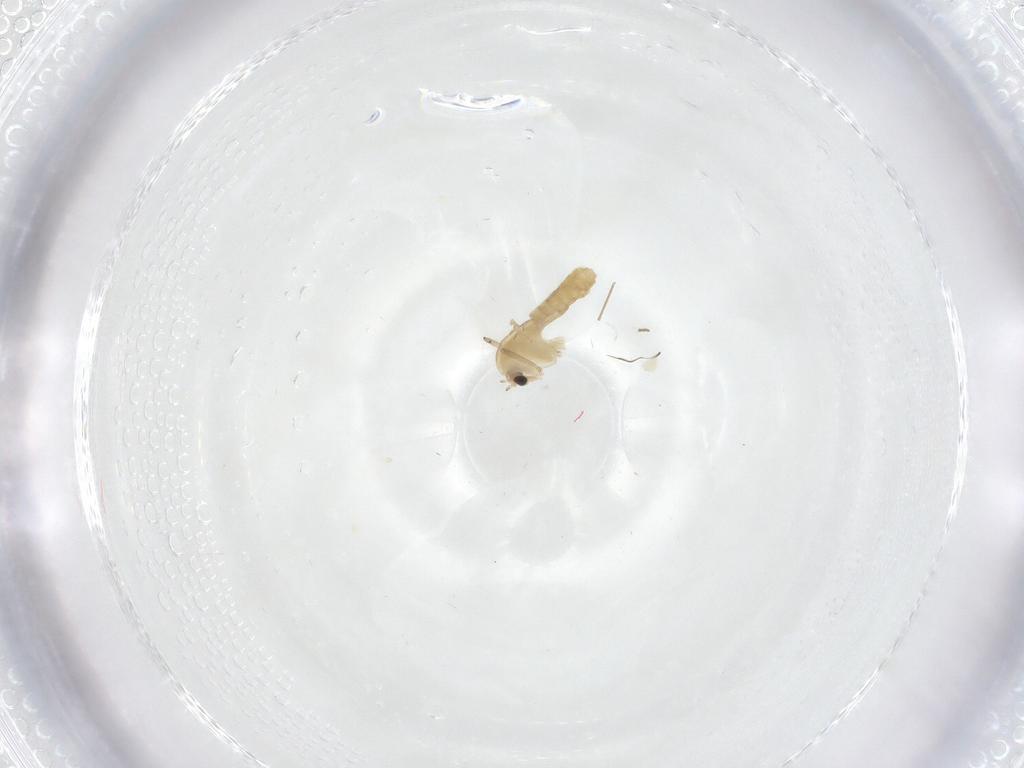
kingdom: Animalia
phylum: Arthropoda
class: Insecta
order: Diptera
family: Chironomidae
